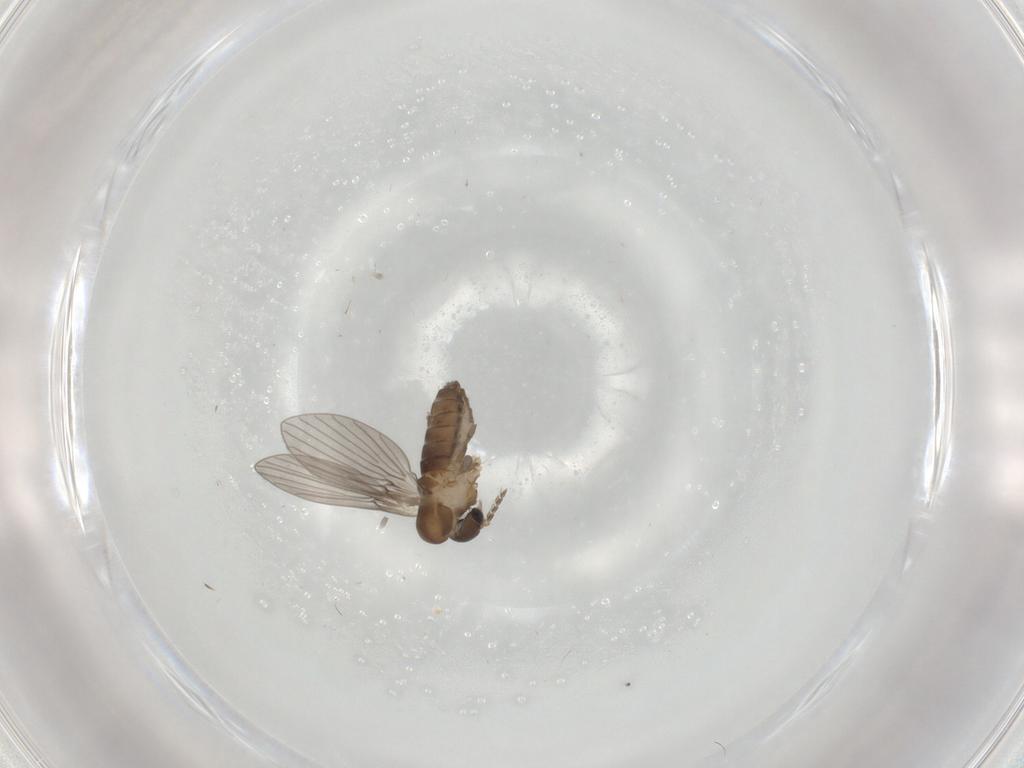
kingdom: Animalia
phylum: Arthropoda
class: Insecta
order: Diptera
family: Psychodidae
